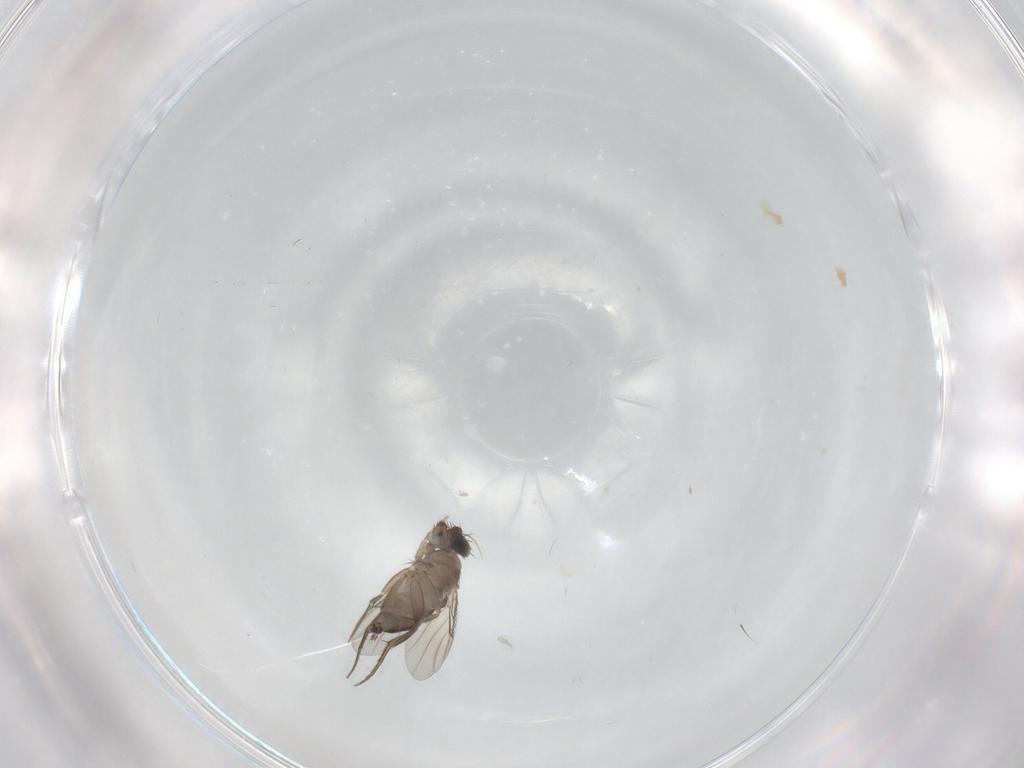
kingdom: Animalia
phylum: Arthropoda
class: Insecta
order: Diptera
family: Phoridae
